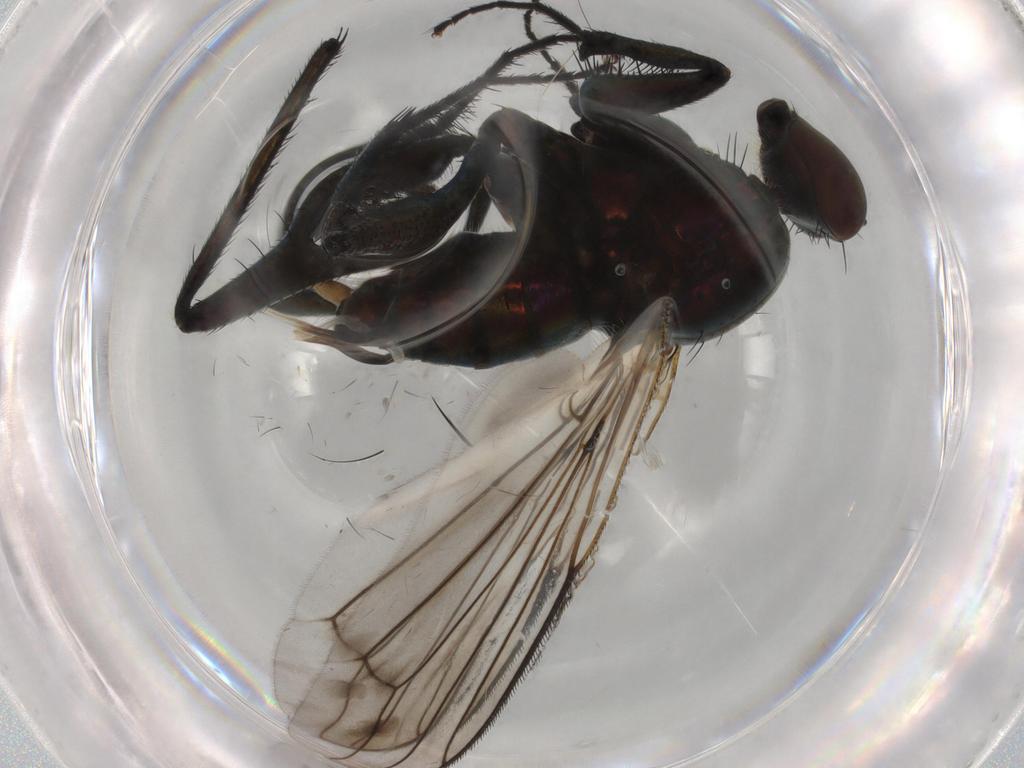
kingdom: Animalia
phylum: Arthropoda
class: Insecta
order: Diptera
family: Dolichopodidae
